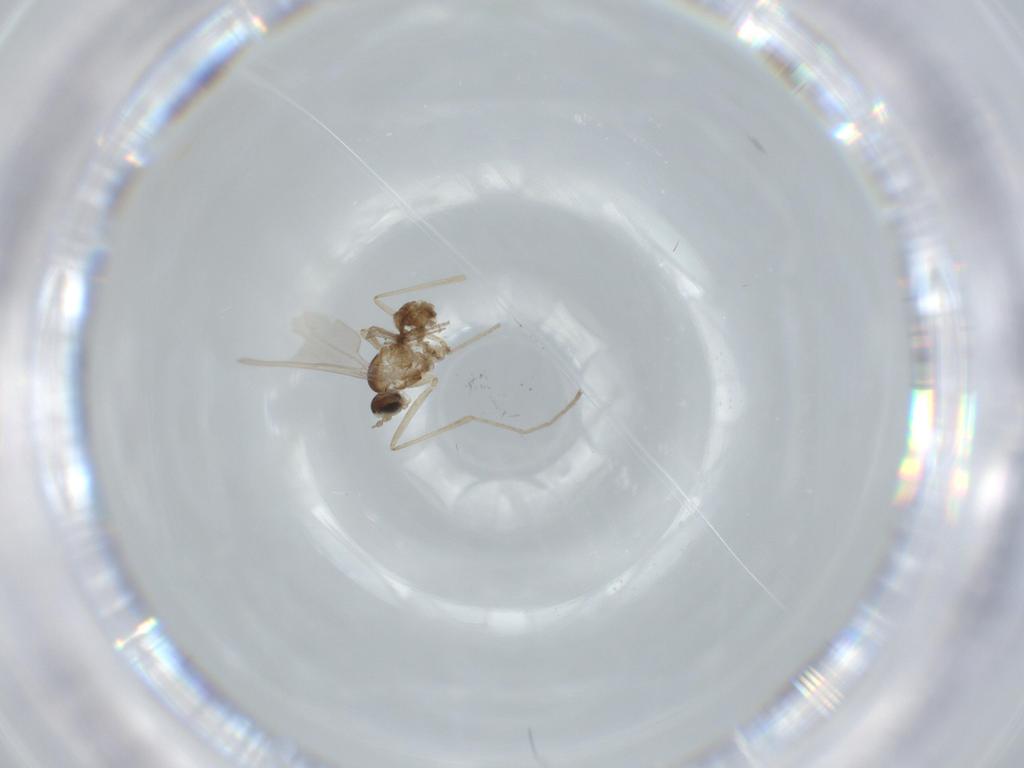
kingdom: Animalia
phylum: Arthropoda
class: Insecta
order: Diptera
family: Cecidomyiidae
